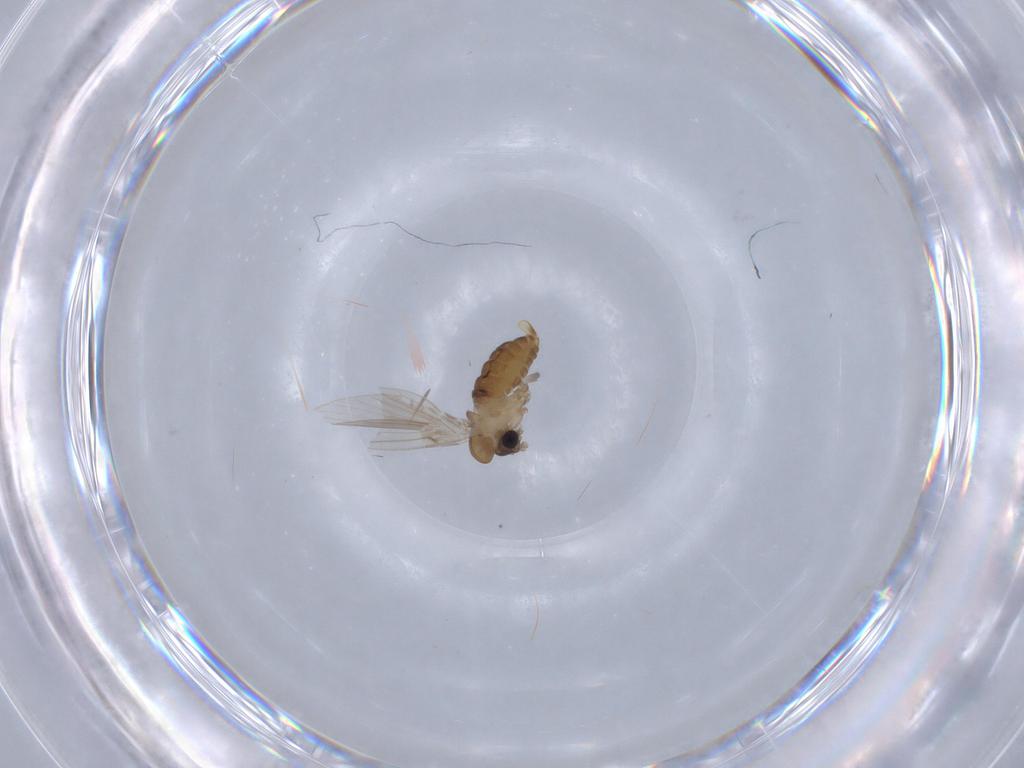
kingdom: Animalia
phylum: Arthropoda
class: Insecta
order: Diptera
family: Psychodidae
